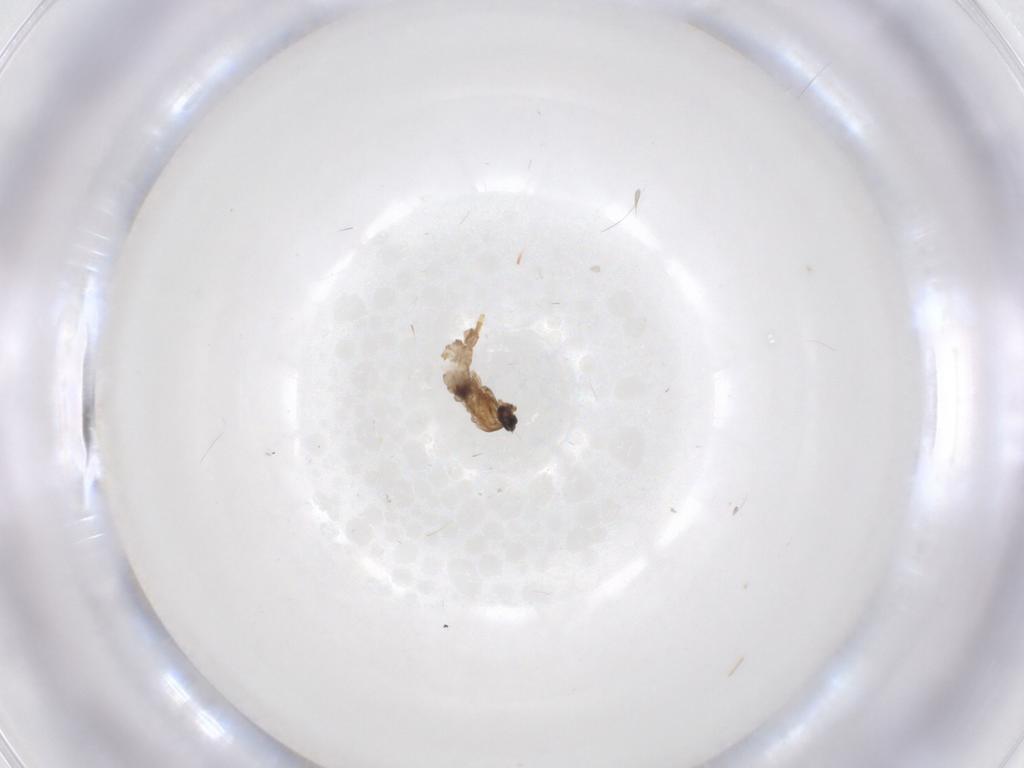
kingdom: Animalia
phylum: Arthropoda
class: Insecta
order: Diptera
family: Cecidomyiidae
